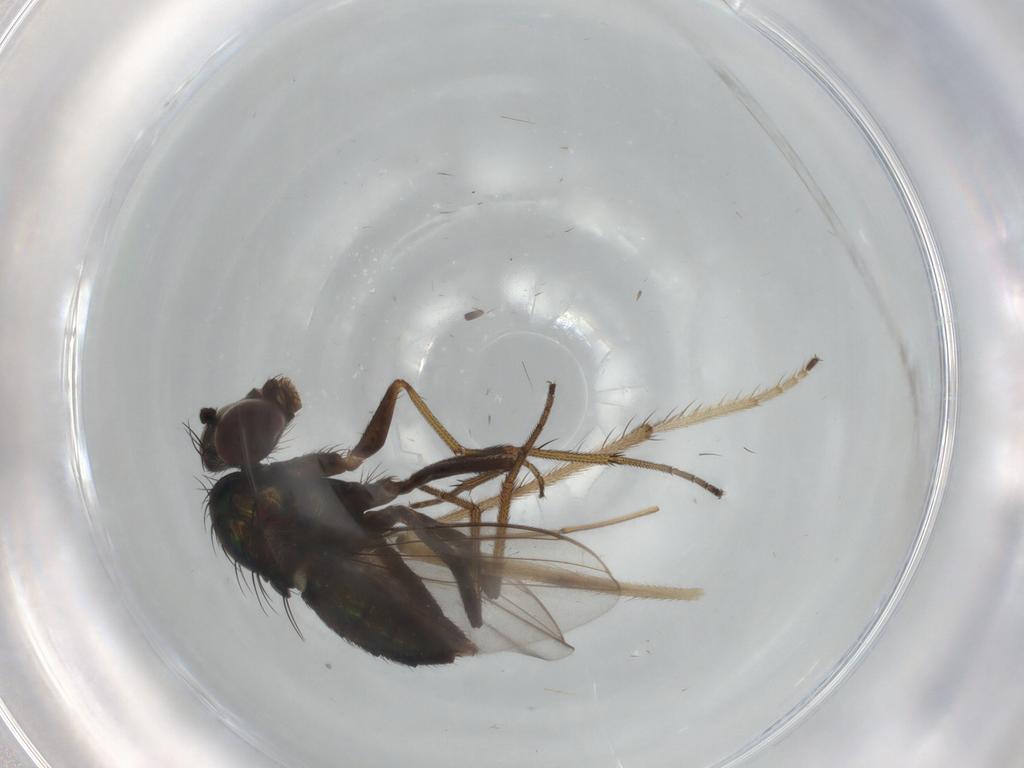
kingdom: Animalia
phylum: Arthropoda
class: Insecta
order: Diptera
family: Dolichopodidae
